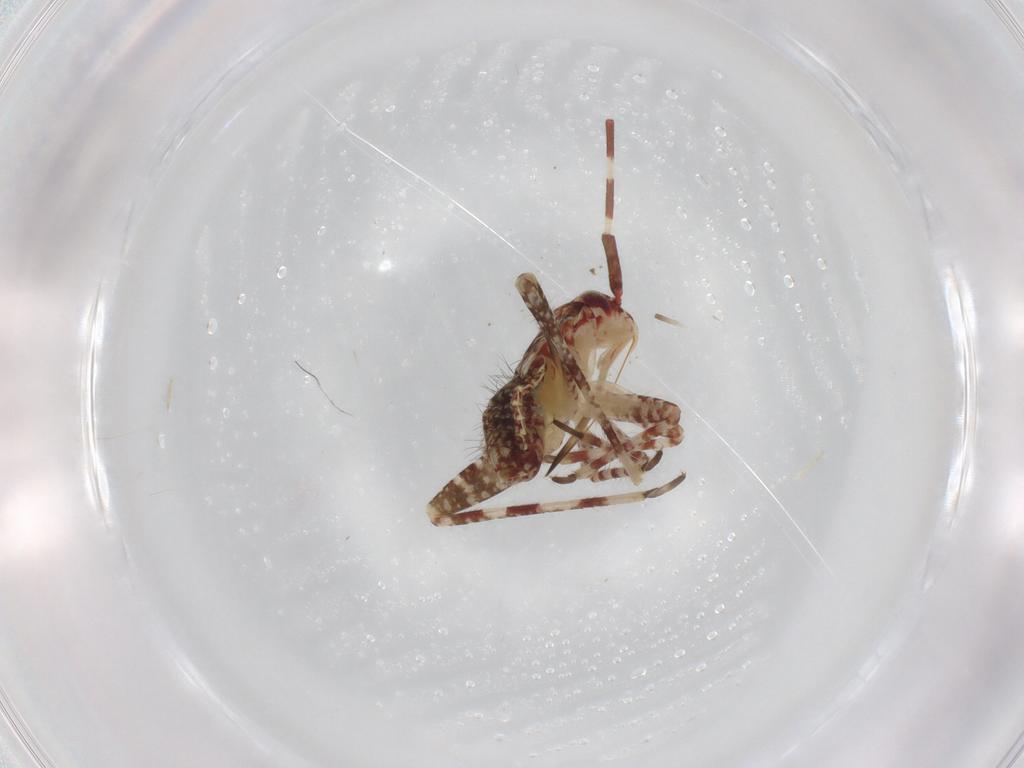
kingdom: Animalia
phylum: Arthropoda
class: Insecta
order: Hemiptera
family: Miridae
